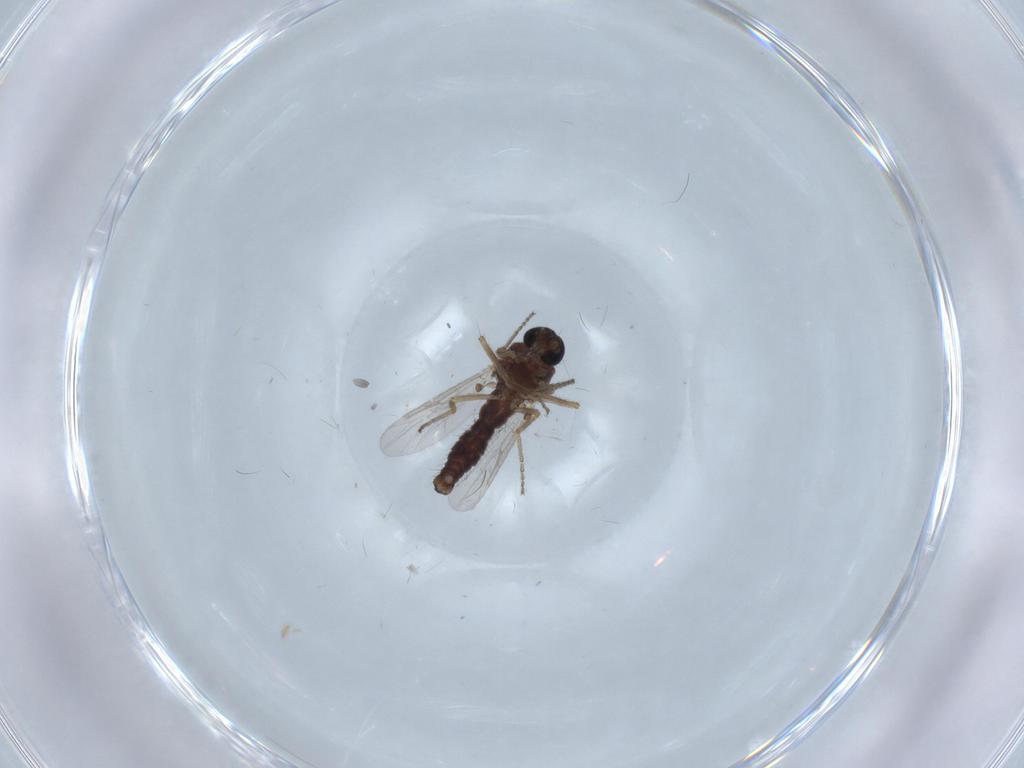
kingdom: Animalia
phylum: Arthropoda
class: Insecta
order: Diptera
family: Ceratopogonidae
